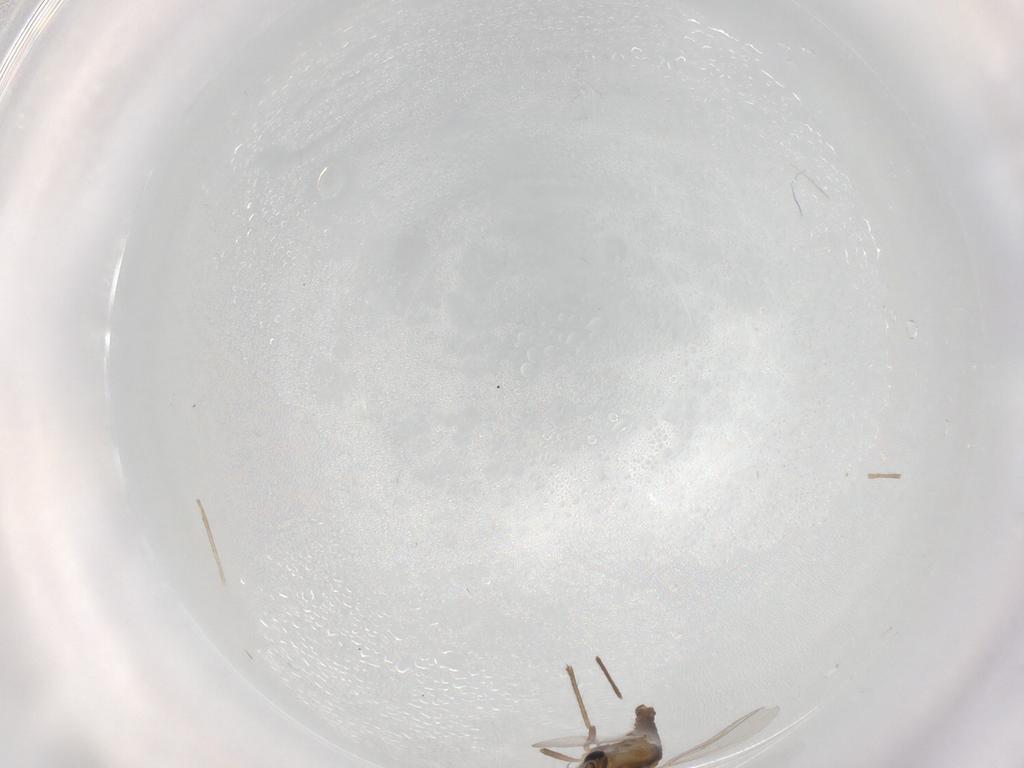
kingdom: Animalia
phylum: Arthropoda
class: Insecta
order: Diptera
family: Chironomidae
